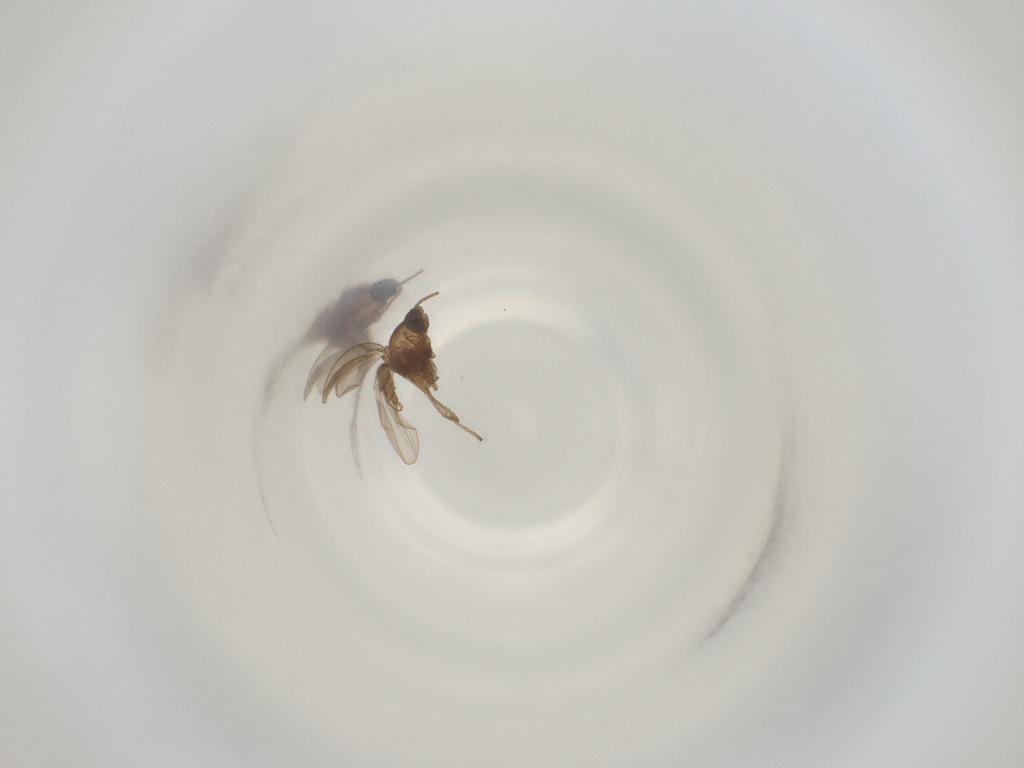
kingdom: Animalia
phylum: Arthropoda
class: Insecta
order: Diptera
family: Cecidomyiidae
